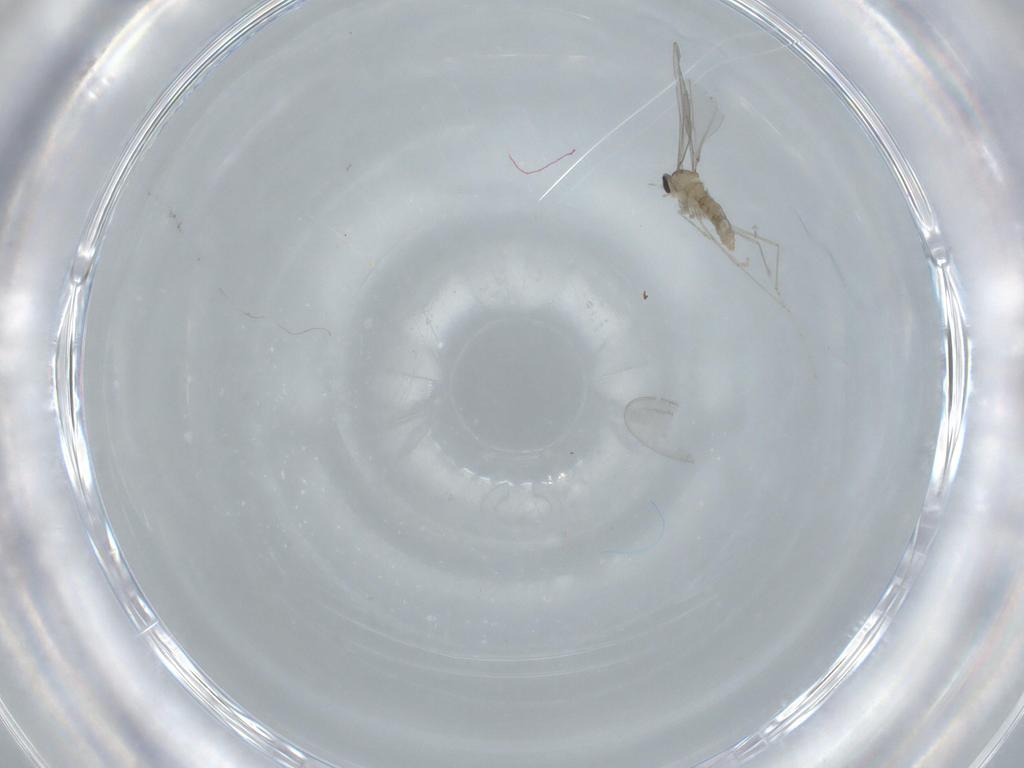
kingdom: Animalia
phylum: Arthropoda
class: Insecta
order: Diptera
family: Cecidomyiidae
